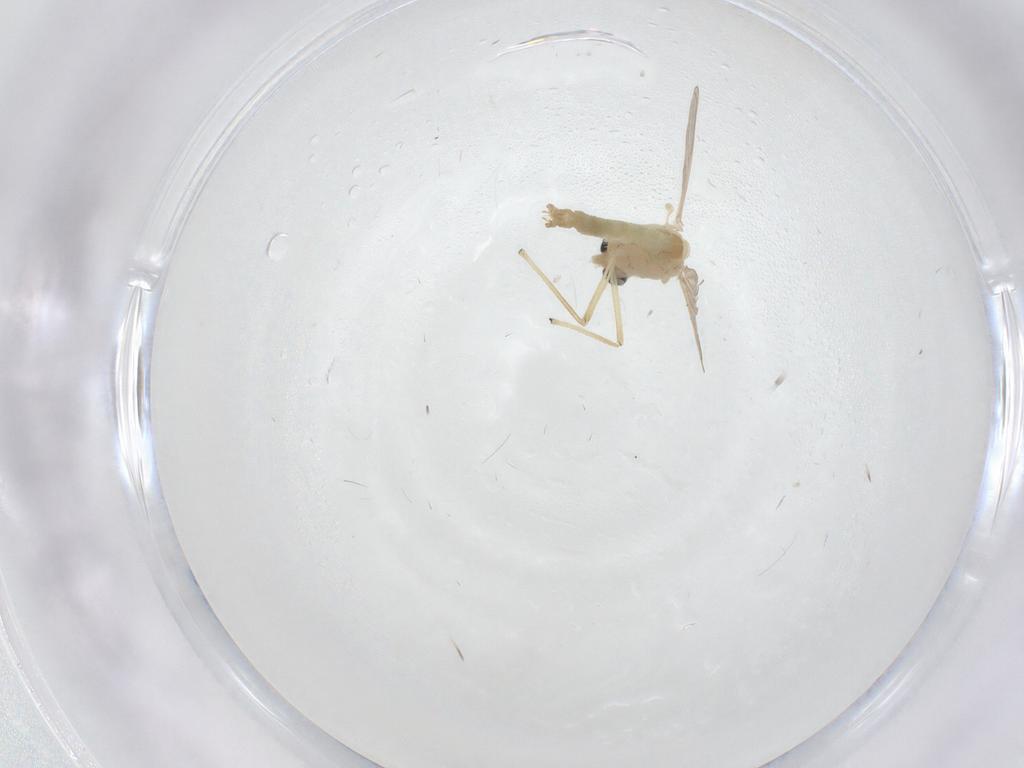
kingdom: Animalia
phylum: Arthropoda
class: Insecta
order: Diptera
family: Chironomidae
